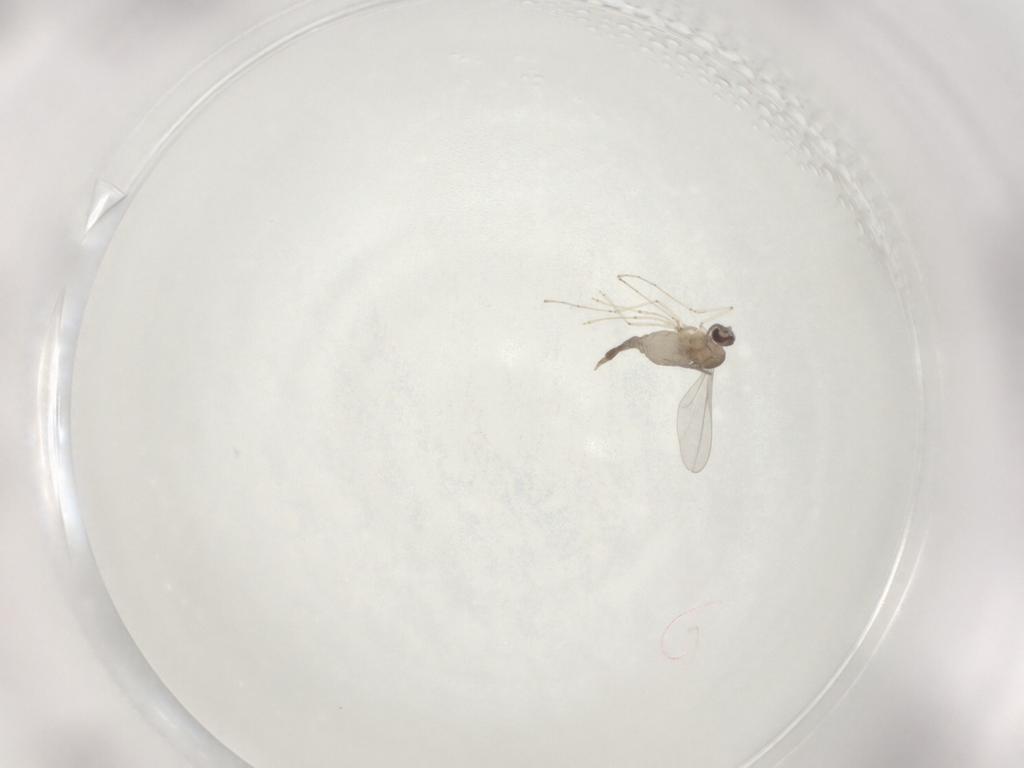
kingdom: Animalia
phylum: Arthropoda
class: Insecta
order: Diptera
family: Cecidomyiidae
